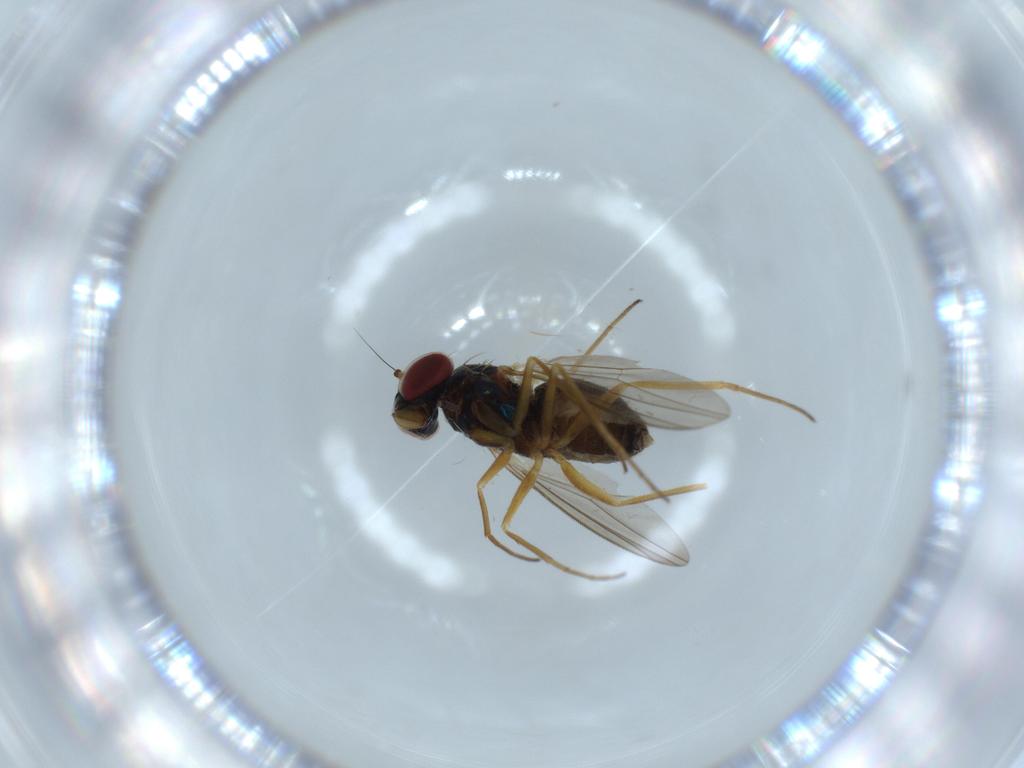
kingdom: Animalia
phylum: Arthropoda
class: Insecta
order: Diptera
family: Dolichopodidae
